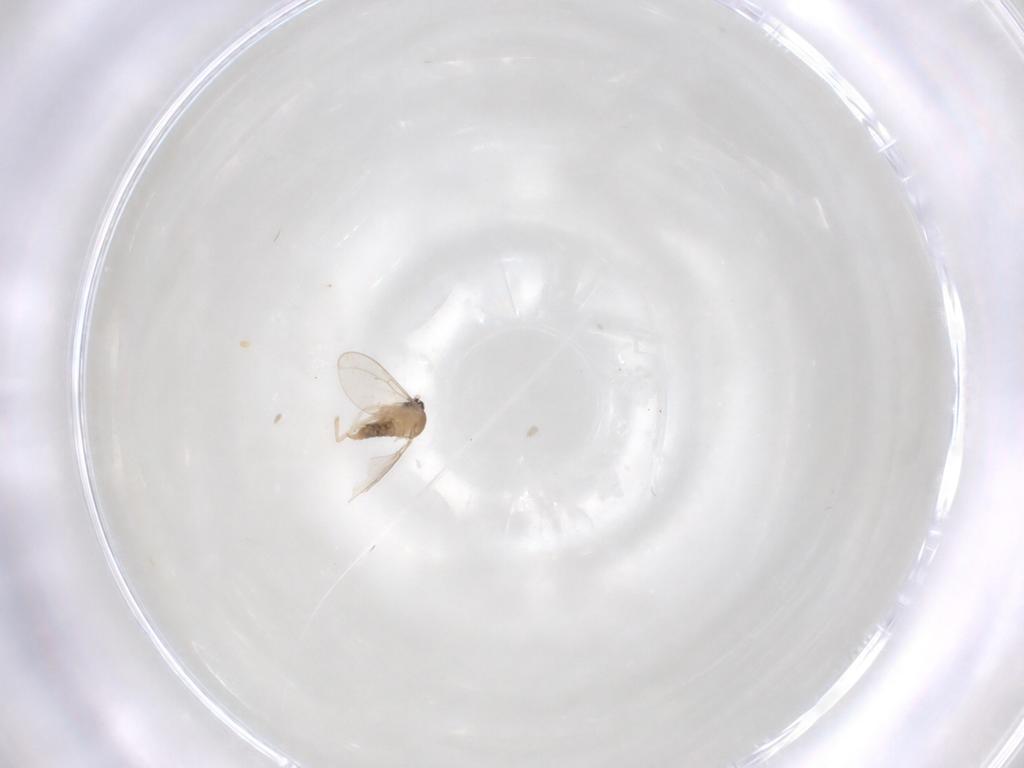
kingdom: Animalia
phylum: Arthropoda
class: Insecta
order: Diptera
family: Cecidomyiidae
